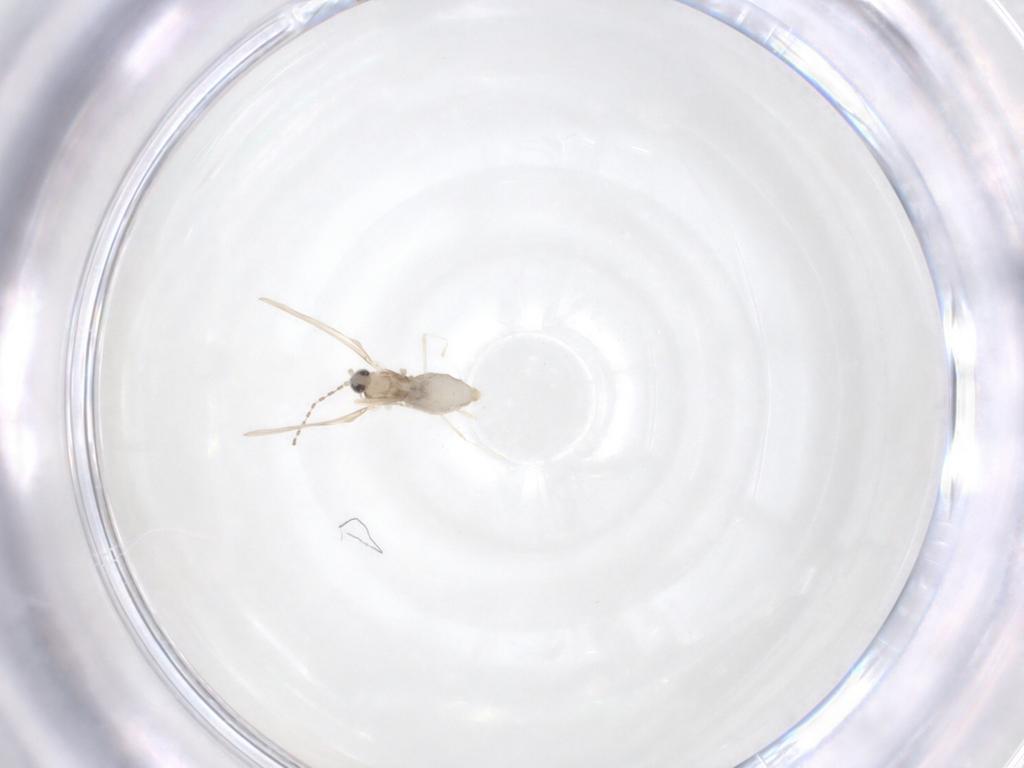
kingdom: Animalia
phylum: Arthropoda
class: Insecta
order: Diptera
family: Cecidomyiidae
